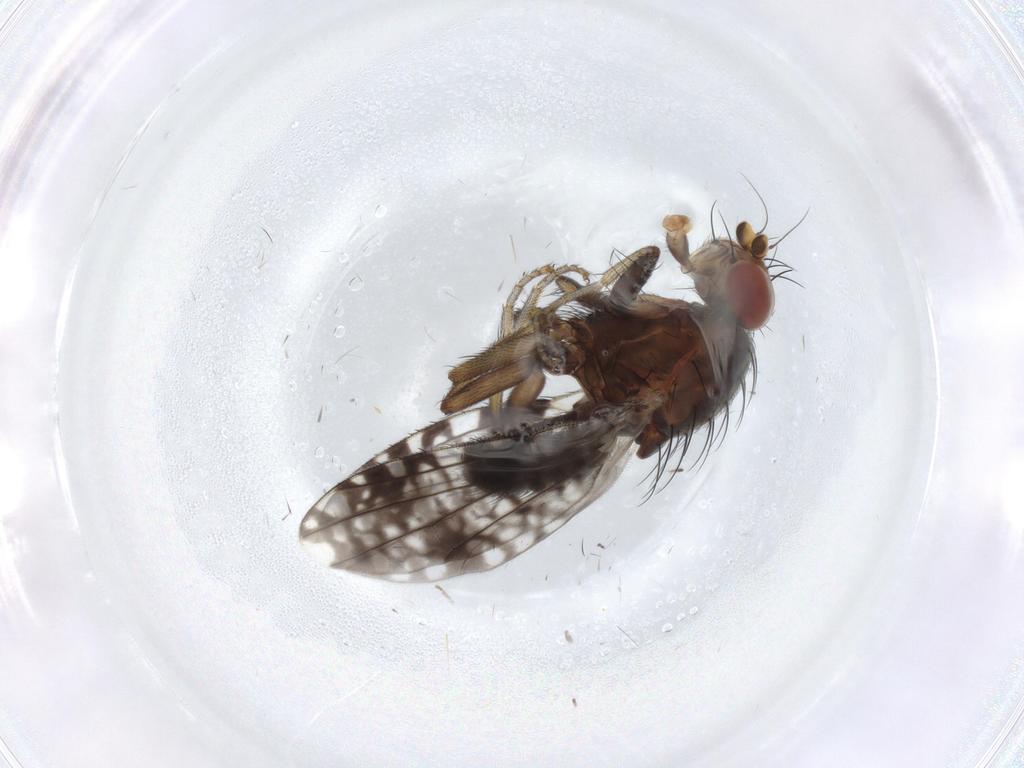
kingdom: Animalia
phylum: Arthropoda
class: Insecta
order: Diptera
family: Tephritidae
